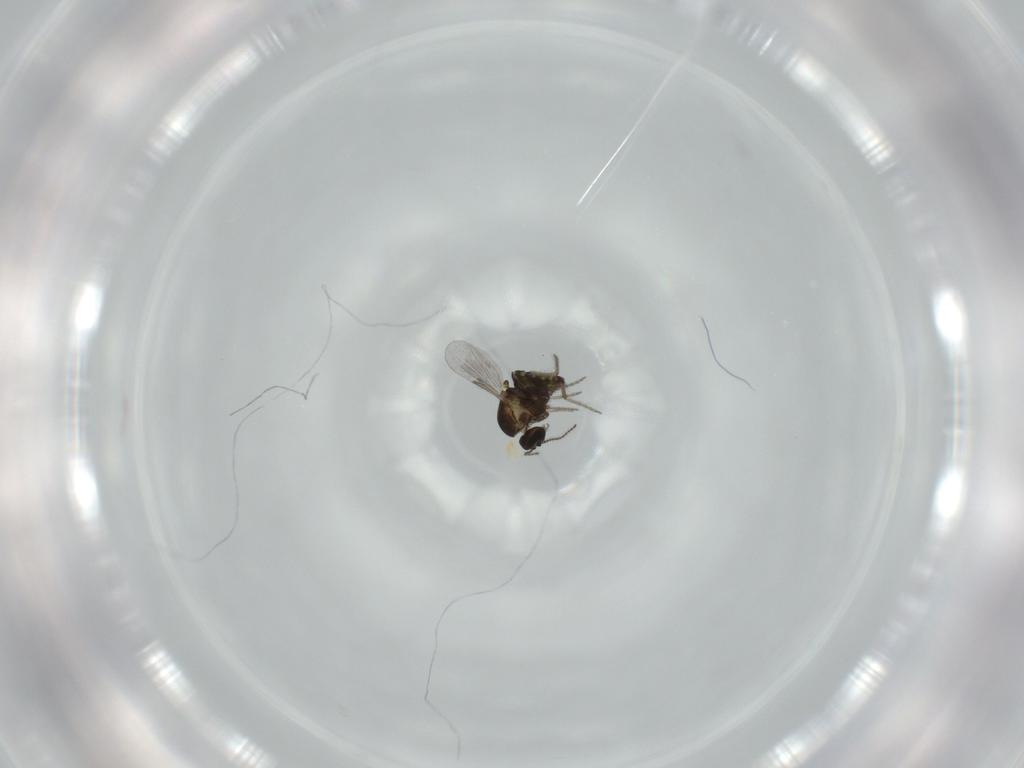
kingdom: Animalia
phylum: Arthropoda
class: Insecta
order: Diptera
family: Ceratopogonidae
